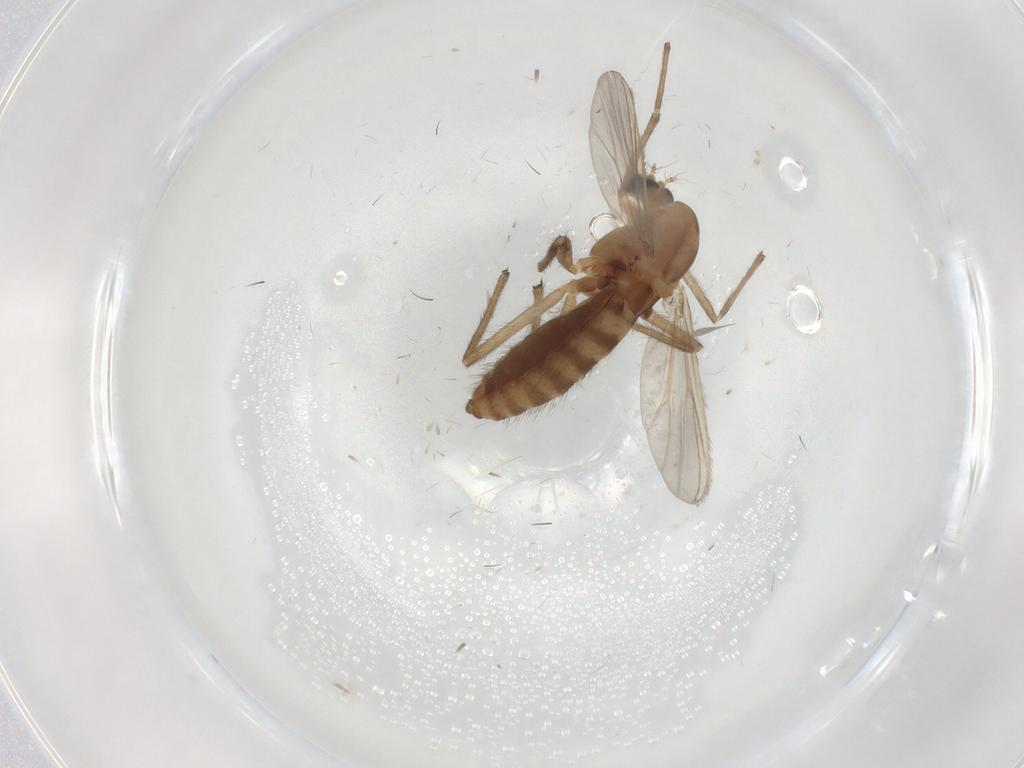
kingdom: Animalia
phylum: Arthropoda
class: Insecta
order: Diptera
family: Chironomidae
